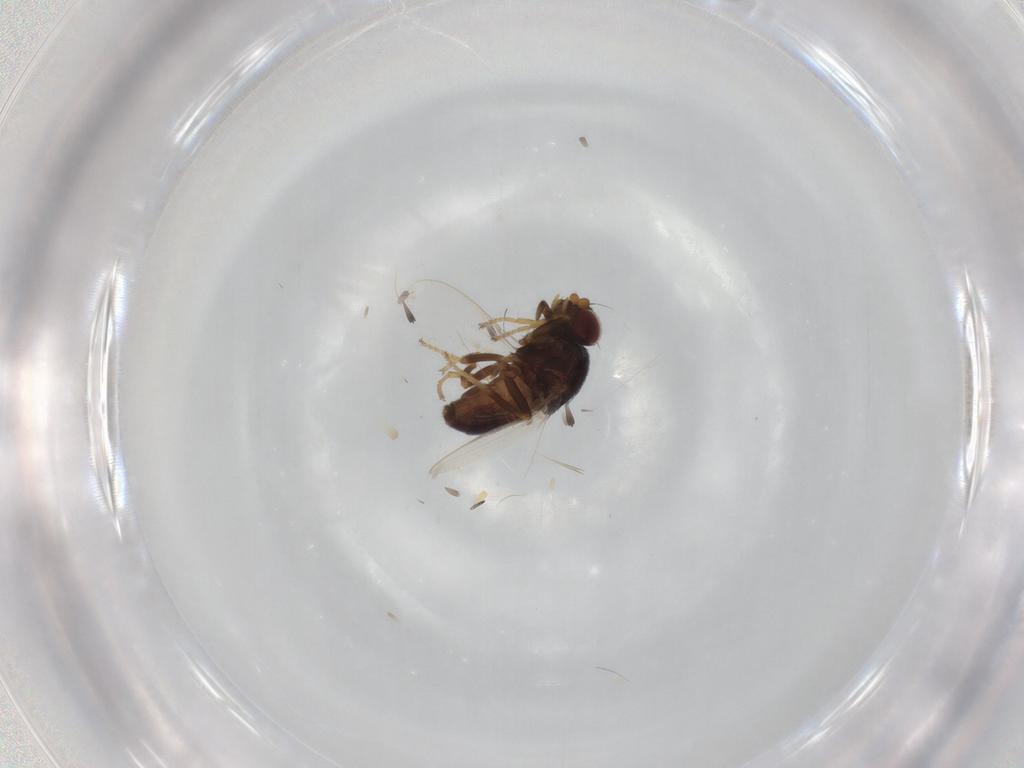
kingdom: Animalia
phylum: Arthropoda
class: Insecta
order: Diptera
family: Chloropidae
